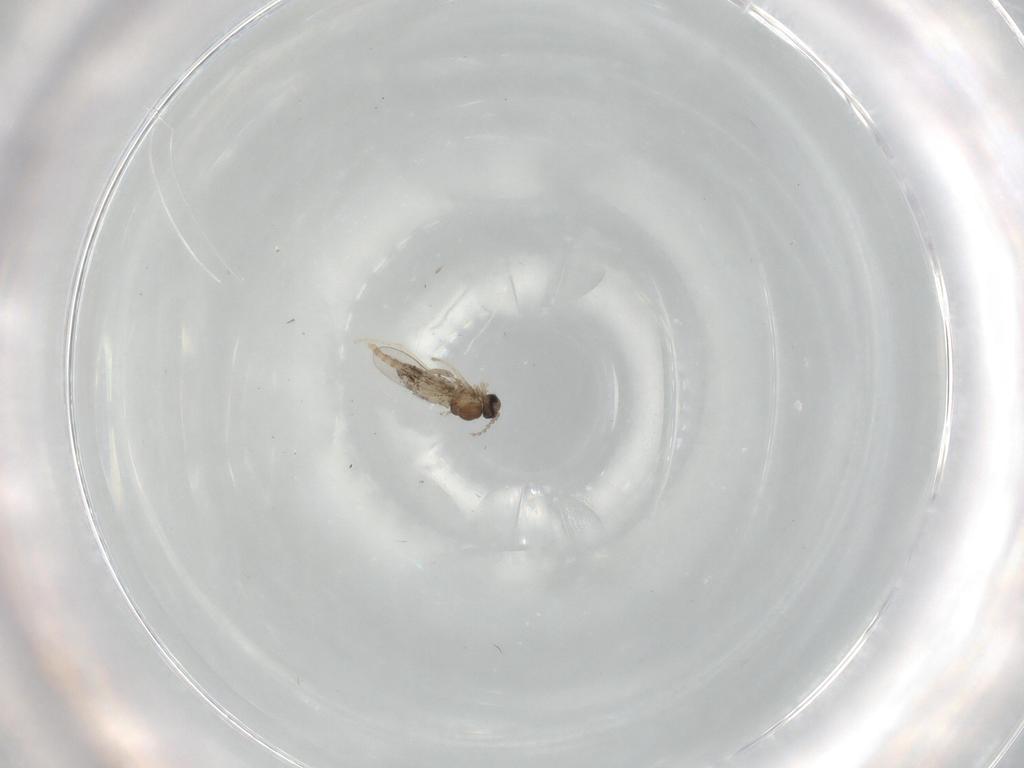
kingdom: Animalia
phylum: Arthropoda
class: Insecta
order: Diptera
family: Cecidomyiidae
